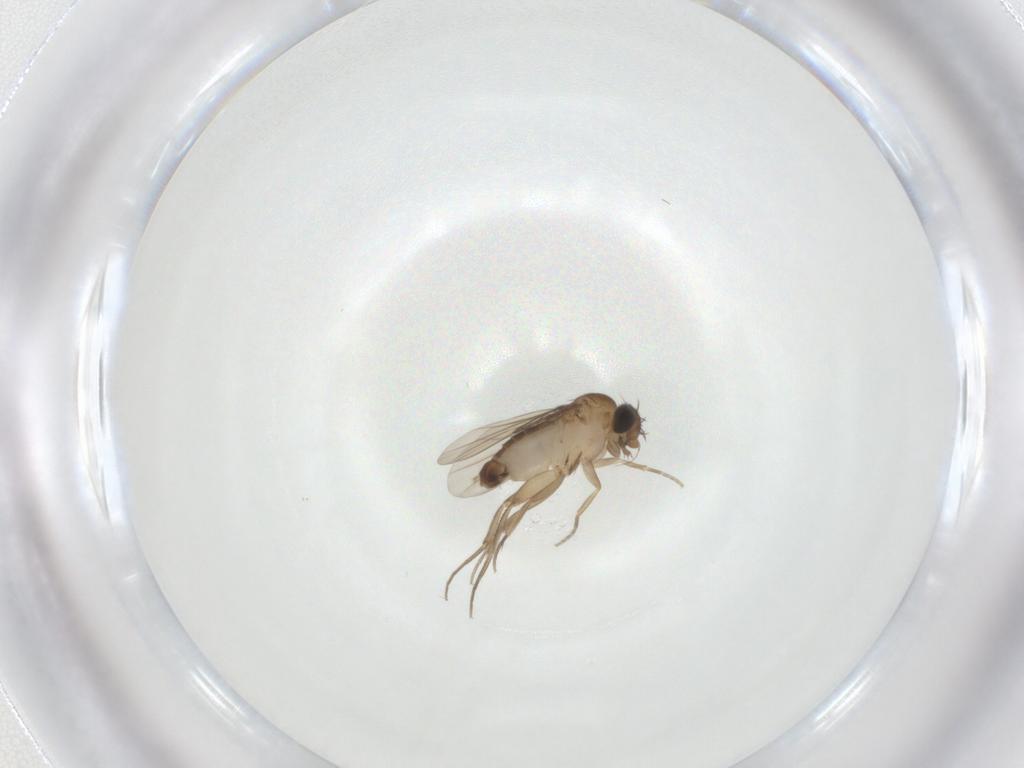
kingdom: Animalia
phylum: Arthropoda
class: Insecta
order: Diptera
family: Phoridae
